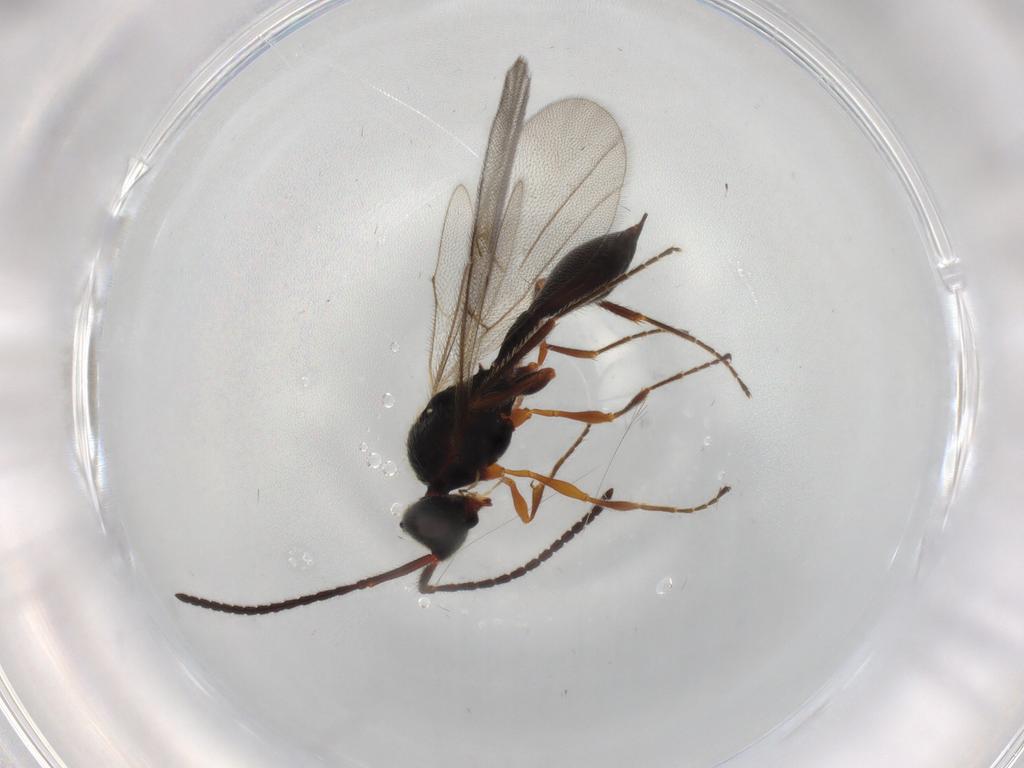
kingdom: Animalia
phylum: Arthropoda
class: Insecta
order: Hymenoptera
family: Diapriidae
